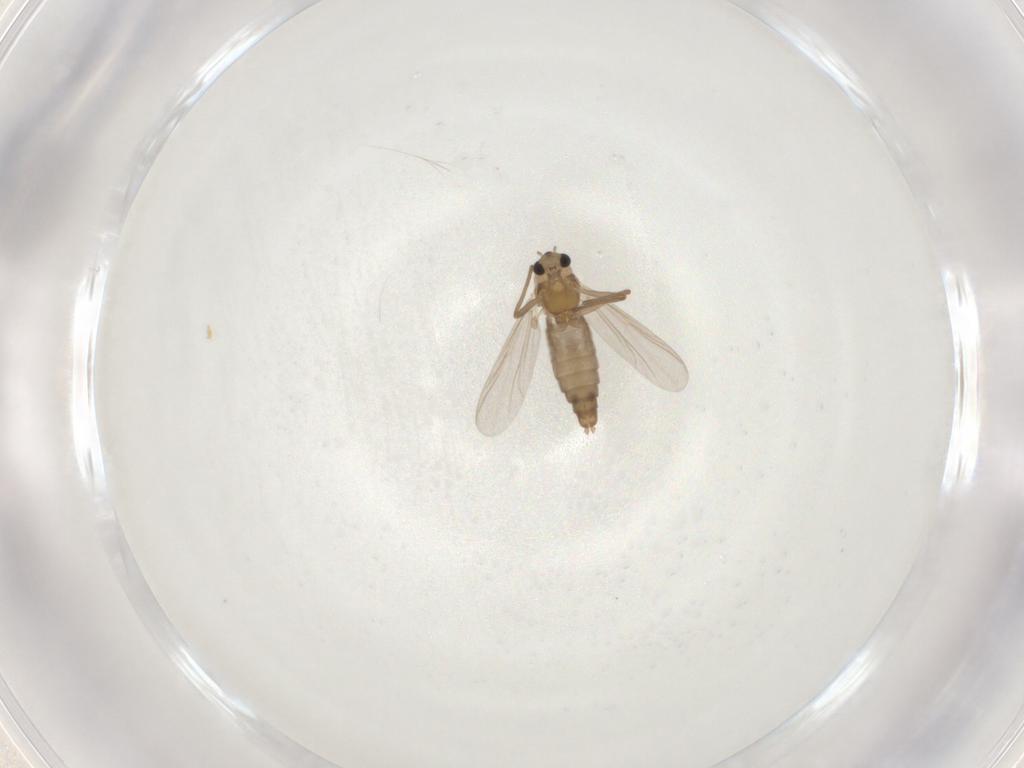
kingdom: Animalia
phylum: Arthropoda
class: Insecta
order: Diptera
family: Chironomidae
